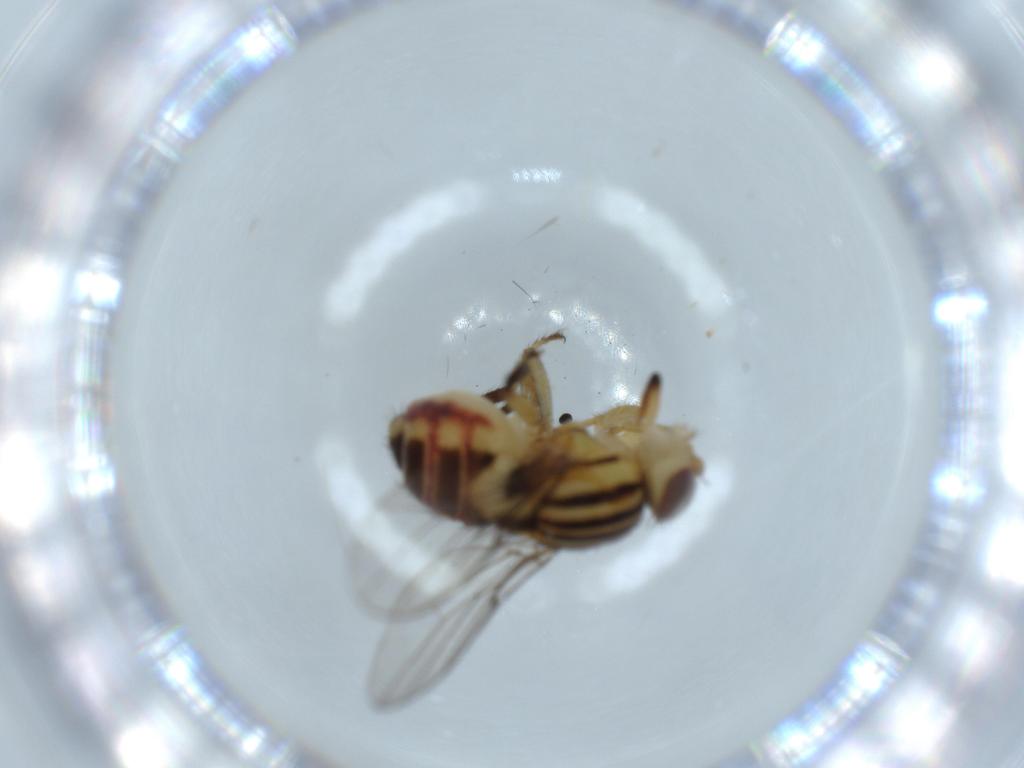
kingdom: Animalia
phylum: Arthropoda
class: Insecta
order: Diptera
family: Chloropidae
